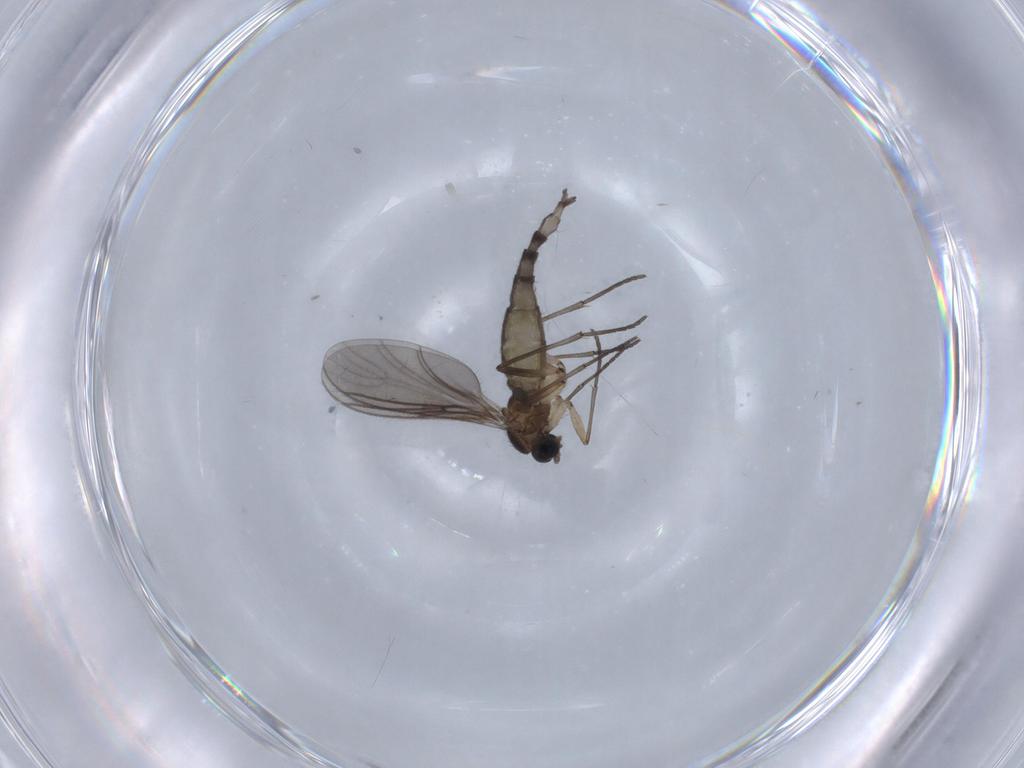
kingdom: Animalia
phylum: Arthropoda
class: Insecta
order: Diptera
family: Sciaridae
